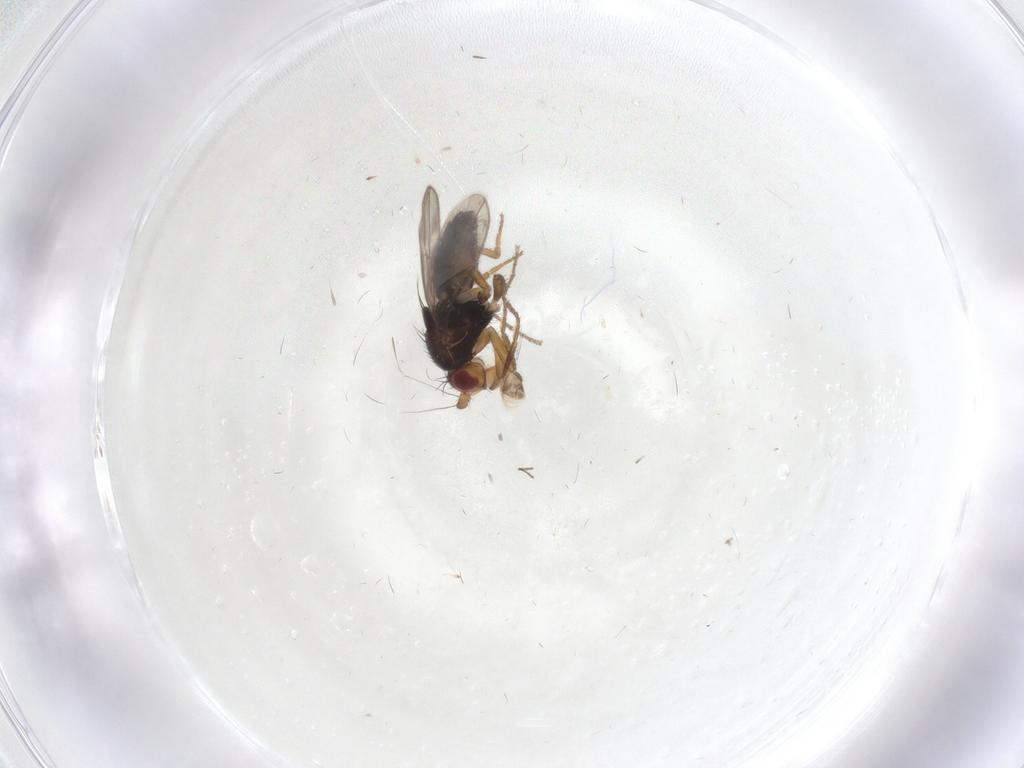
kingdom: Animalia
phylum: Arthropoda
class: Insecta
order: Diptera
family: Sphaeroceridae
